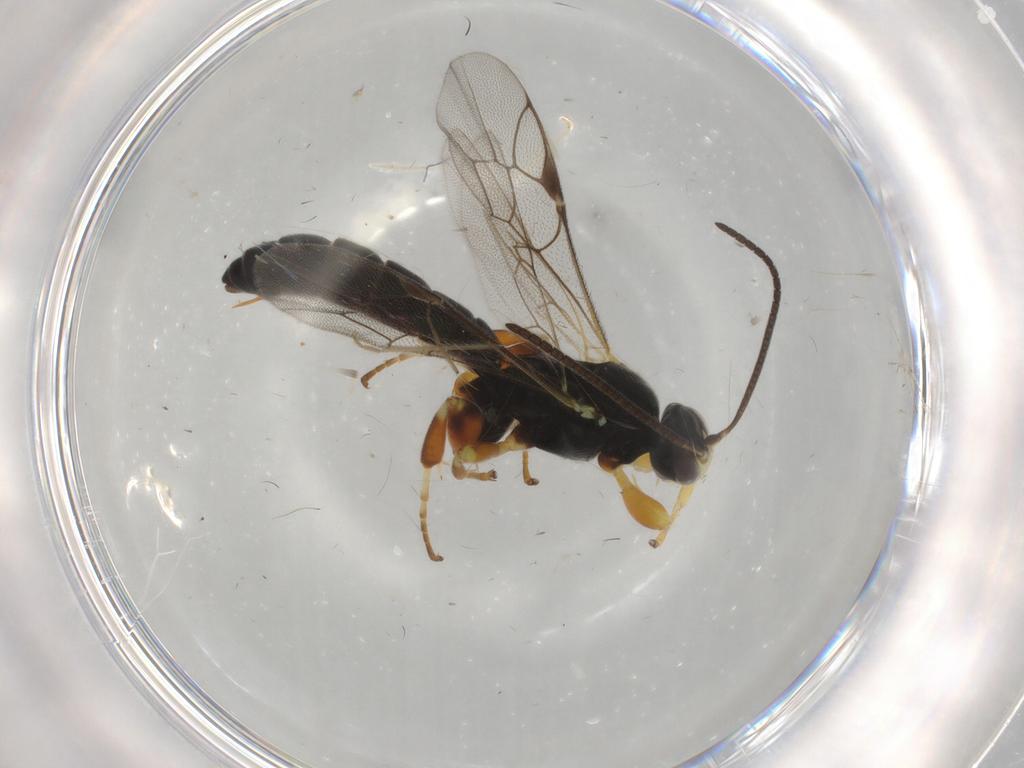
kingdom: Animalia
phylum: Arthropoda
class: Insecta
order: Hymenoptera
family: Ichneumonidae
